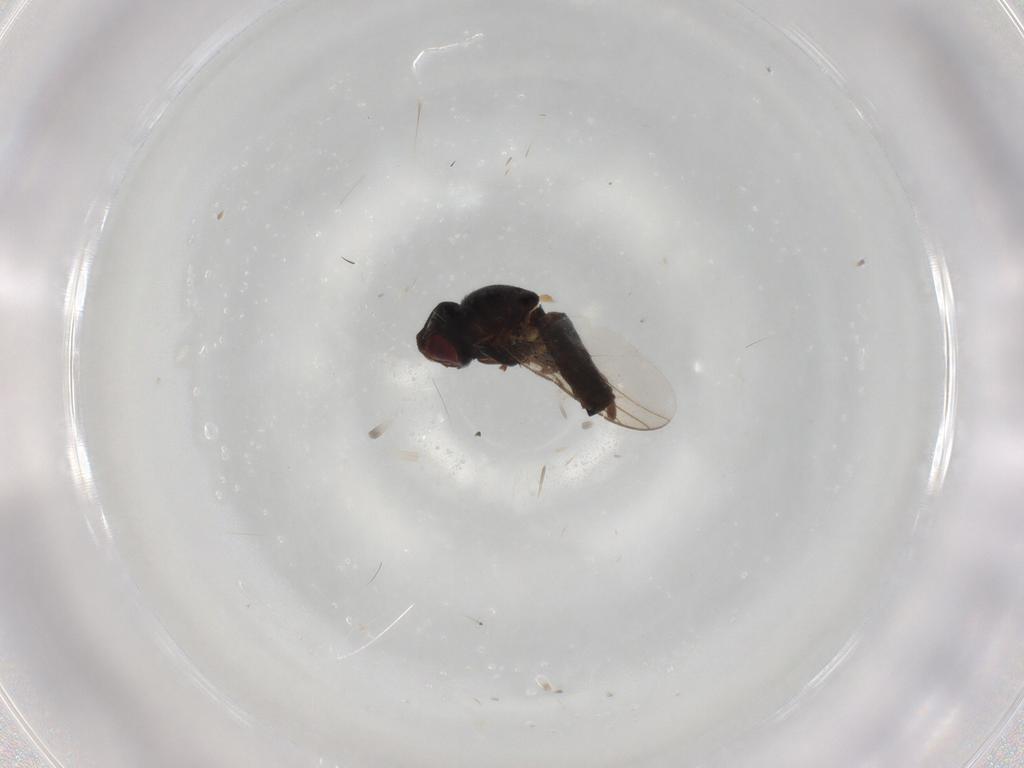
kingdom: Animalia
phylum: Arthropoda
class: Insecta
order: Diptera
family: Chloropidae
